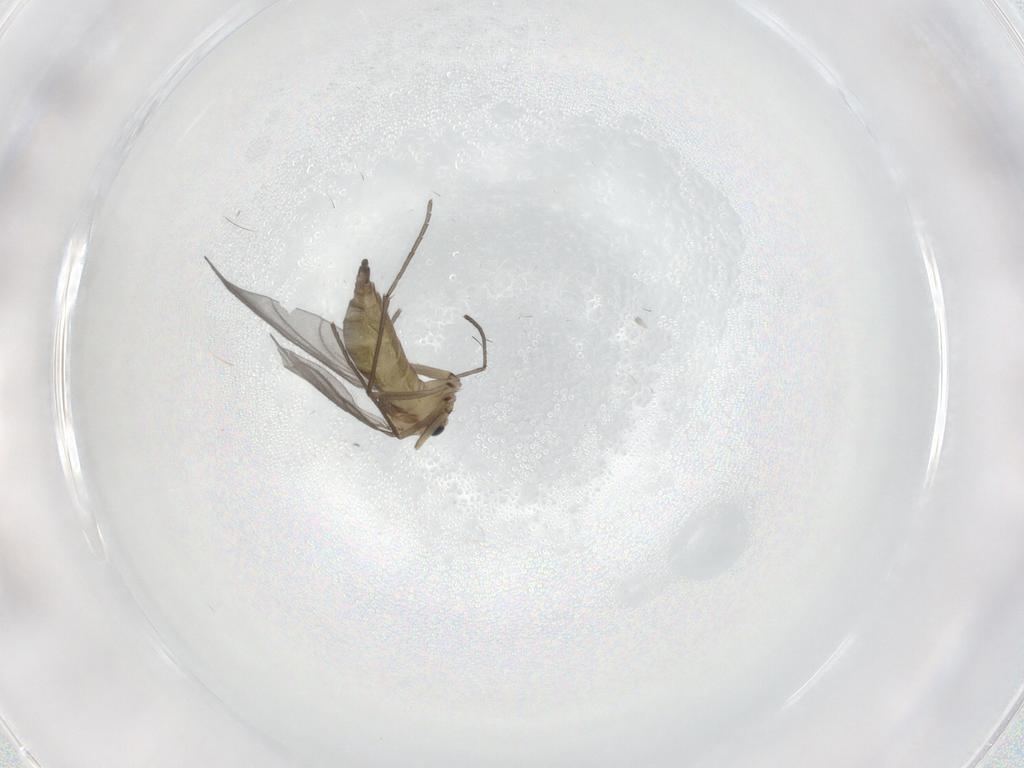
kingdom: Animalia
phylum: Arthropoda
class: Insecta
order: Diptera
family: Sciaridae
